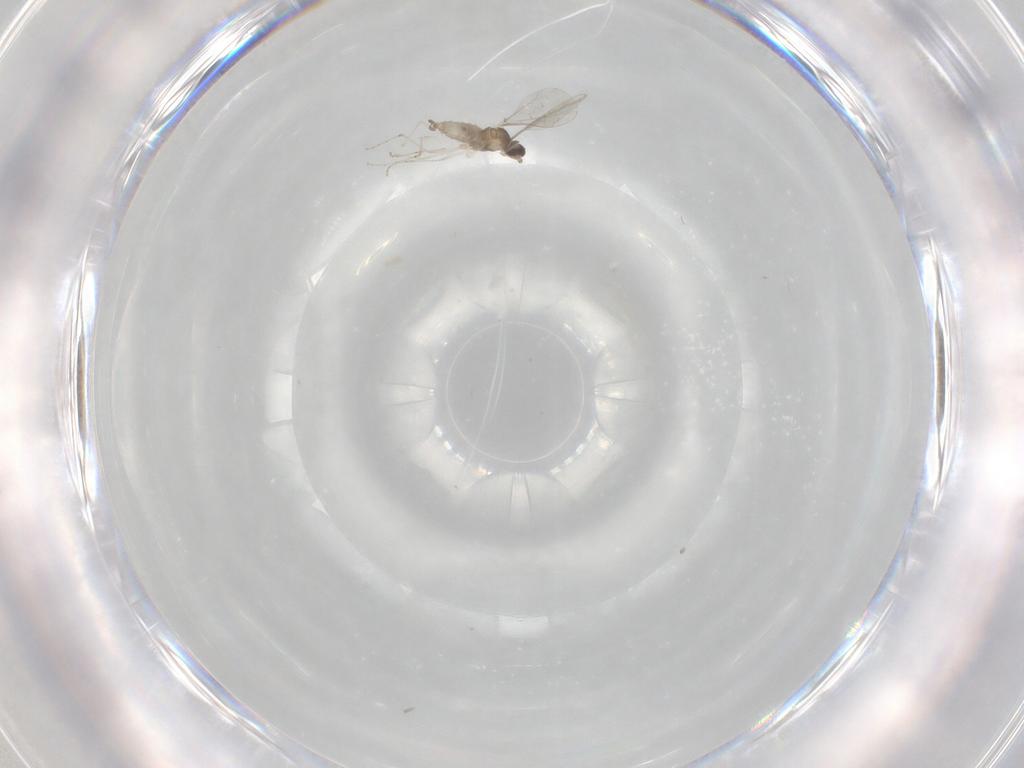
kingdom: Animalia
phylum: Arthropoda
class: Insecta
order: Diptera
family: Cecidomyiidae
